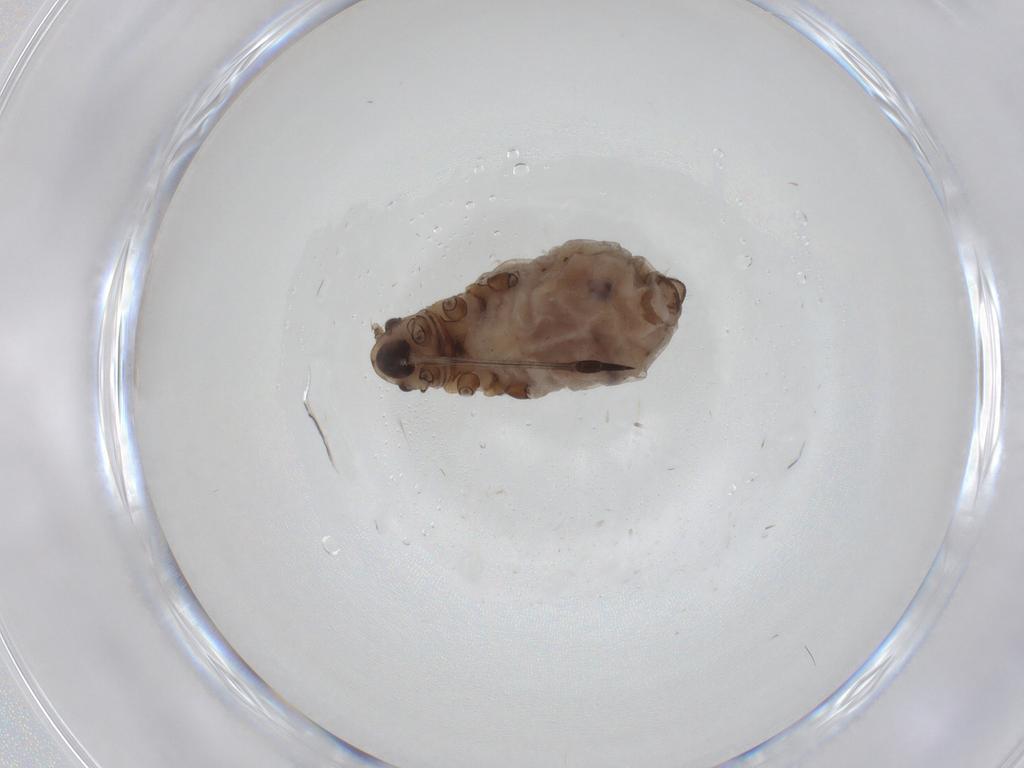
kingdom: Animalia
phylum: Arthropoda
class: Insecta
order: Hemiptera
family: Aphididae
